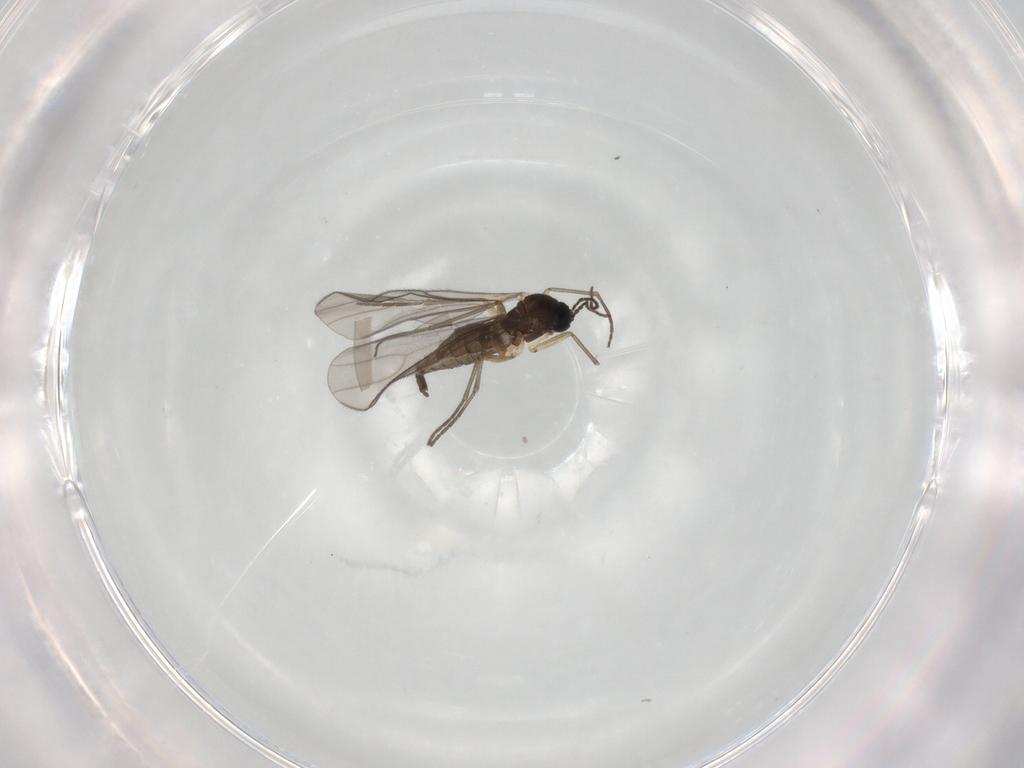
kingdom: Animalia
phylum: Arthropoda
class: Insecta
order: Diptera
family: Sciaridae
